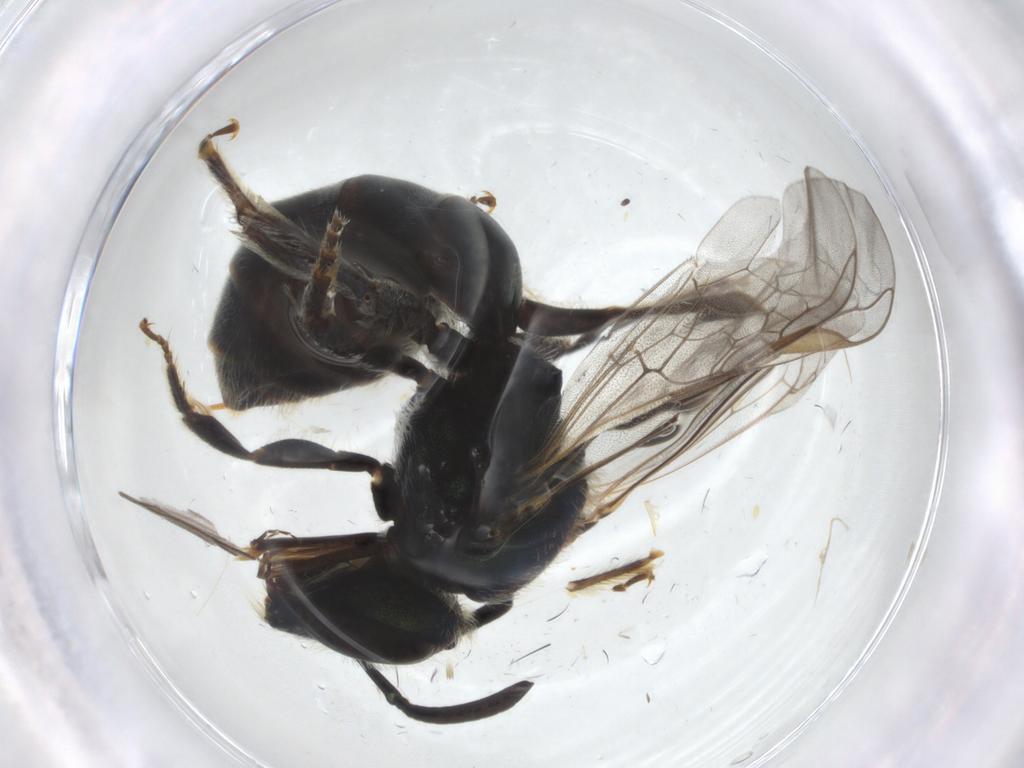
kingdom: Animalia
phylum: Arthropoda
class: Insecta
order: Hymenoptera
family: Halictidae
